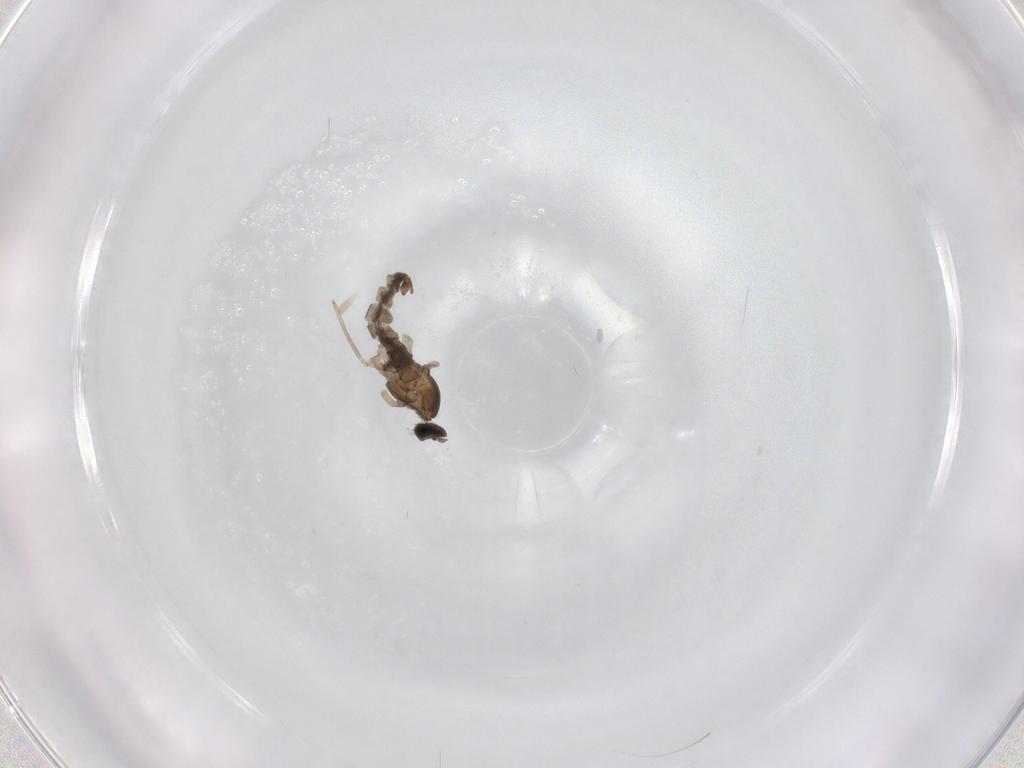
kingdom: Animalia
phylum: Arthropoda
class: Insecta
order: Diptera
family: Cecidomyiidae
